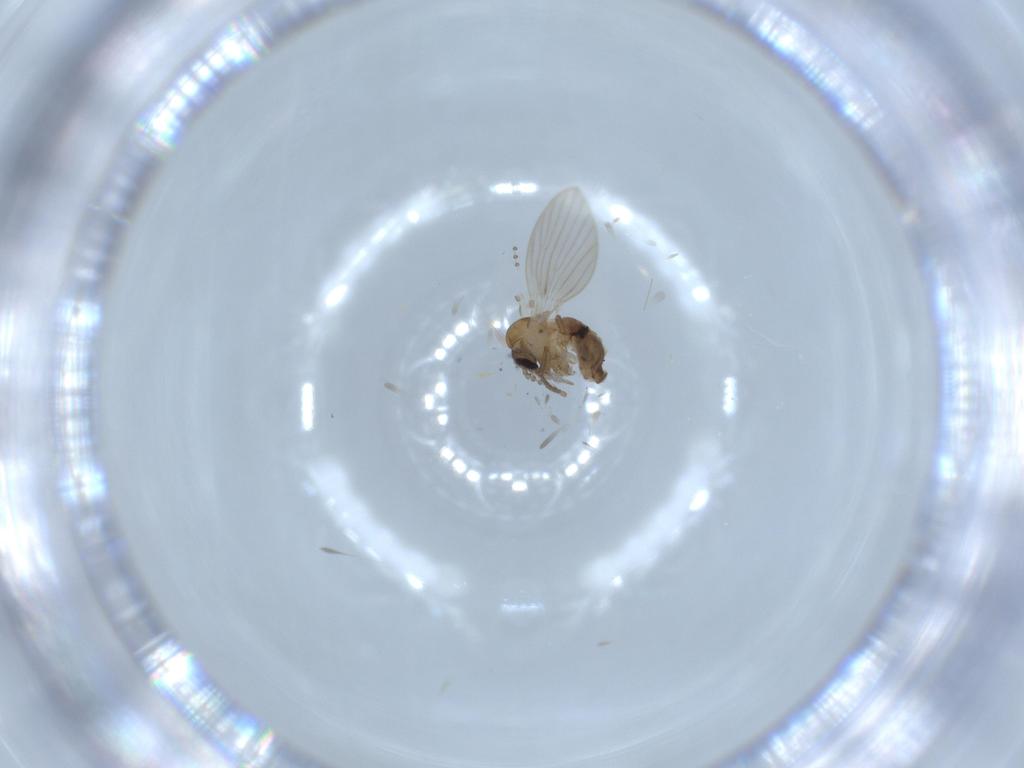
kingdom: Animalia
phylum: Arthropoda
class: Insecta
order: Diptera
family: Psychodidae
